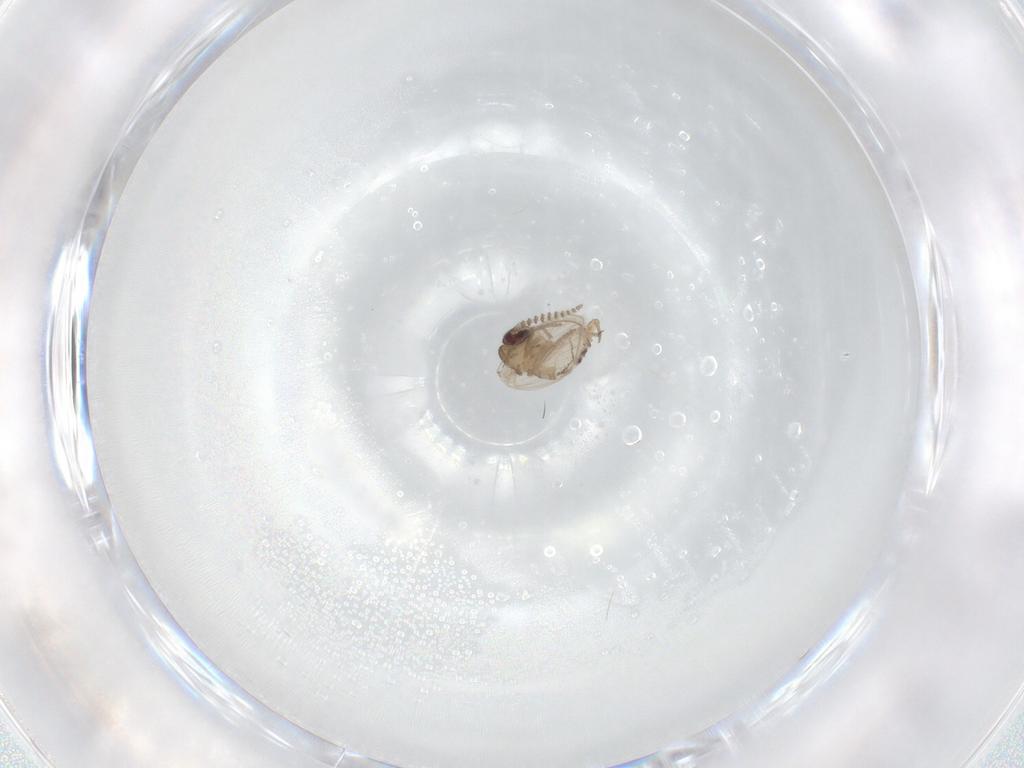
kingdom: Animalia
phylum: Arthropoda
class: Insecta
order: Diptera
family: Psychodidae
